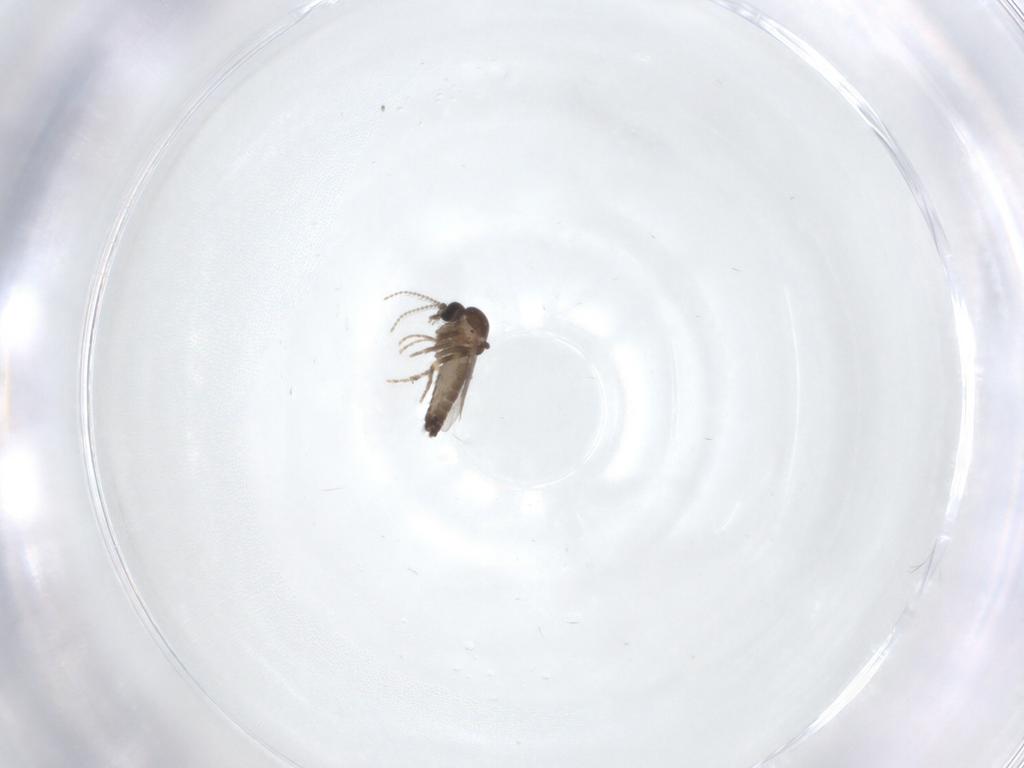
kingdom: Animalia
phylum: Arthropoda
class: Insecta
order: Diptera
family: Ceratopogonidae
